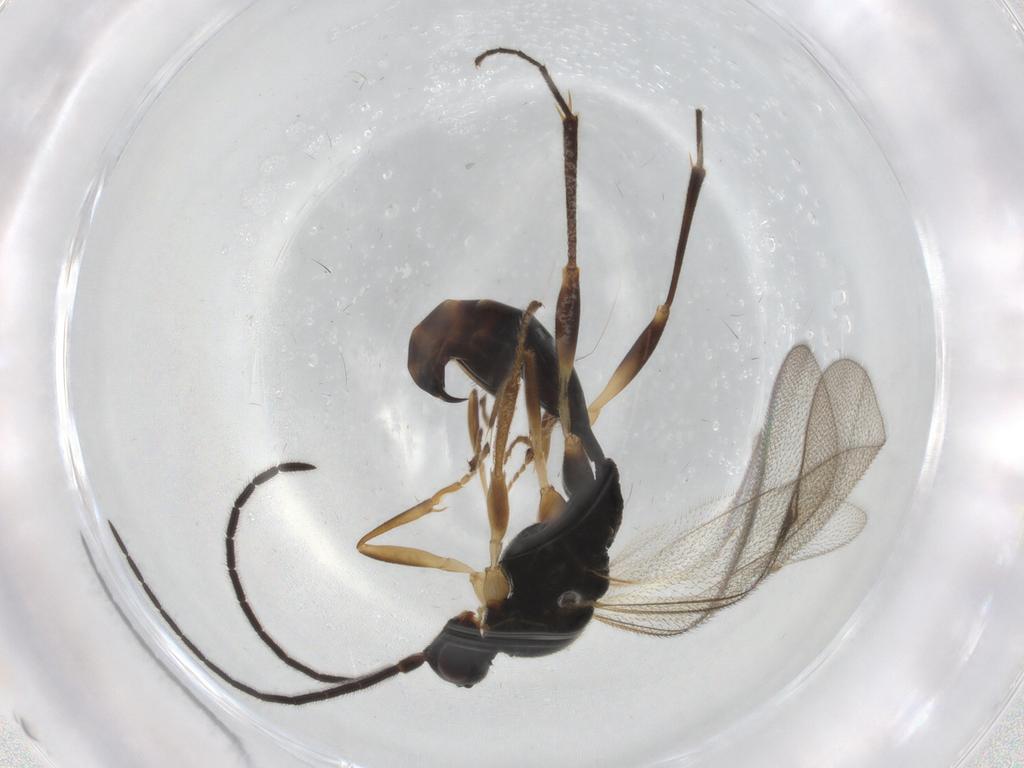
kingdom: Animalia
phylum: Arthropoda
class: Insecta
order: Hymenoptera
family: Proctotrupidae
